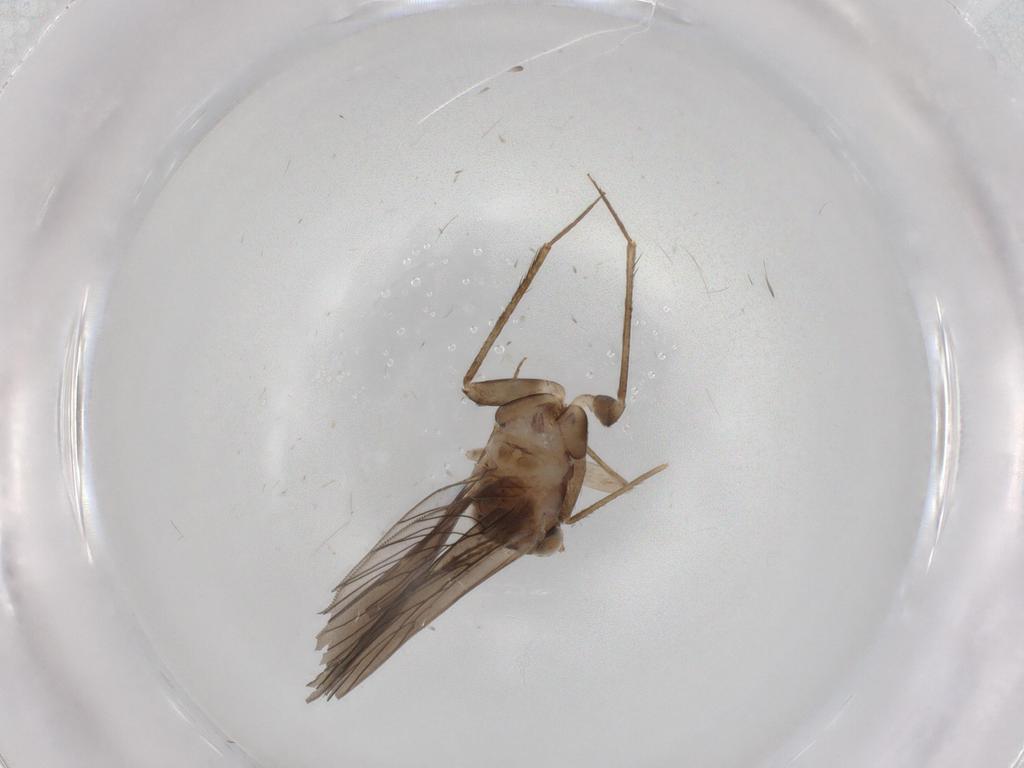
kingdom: Animalia
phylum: Arthropoda
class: Insecta
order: Psocodea
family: Lepidopsocidae
